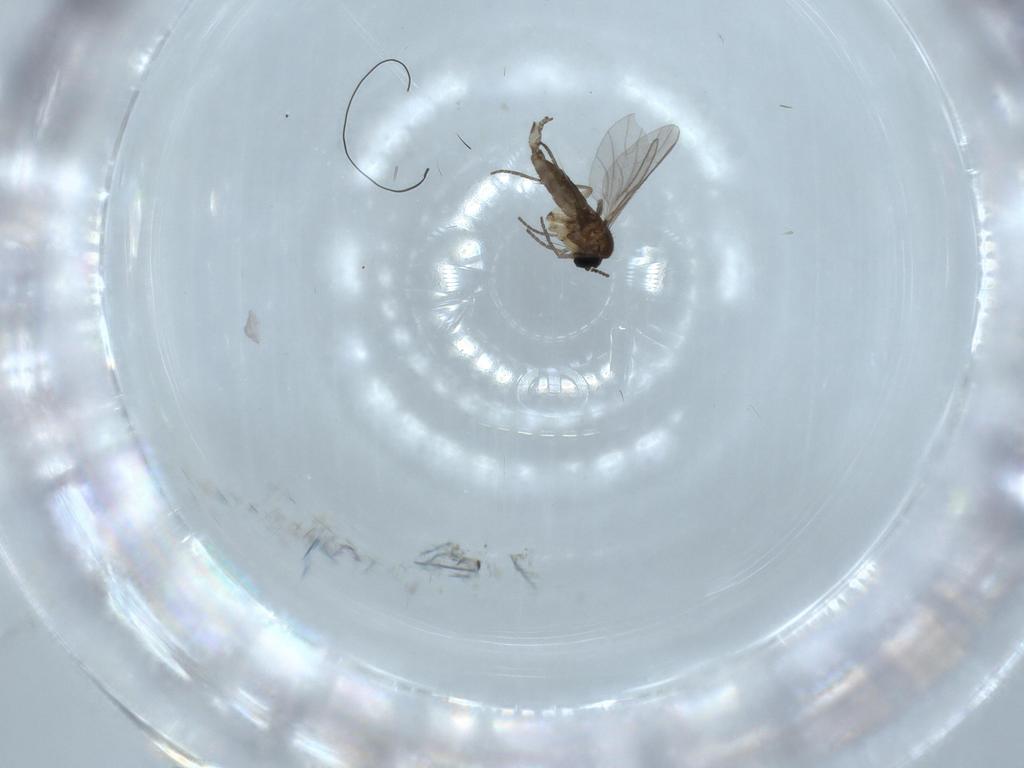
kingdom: Animalia
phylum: Arthropoda
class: Insecta
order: Diptera
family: Sciaridae
